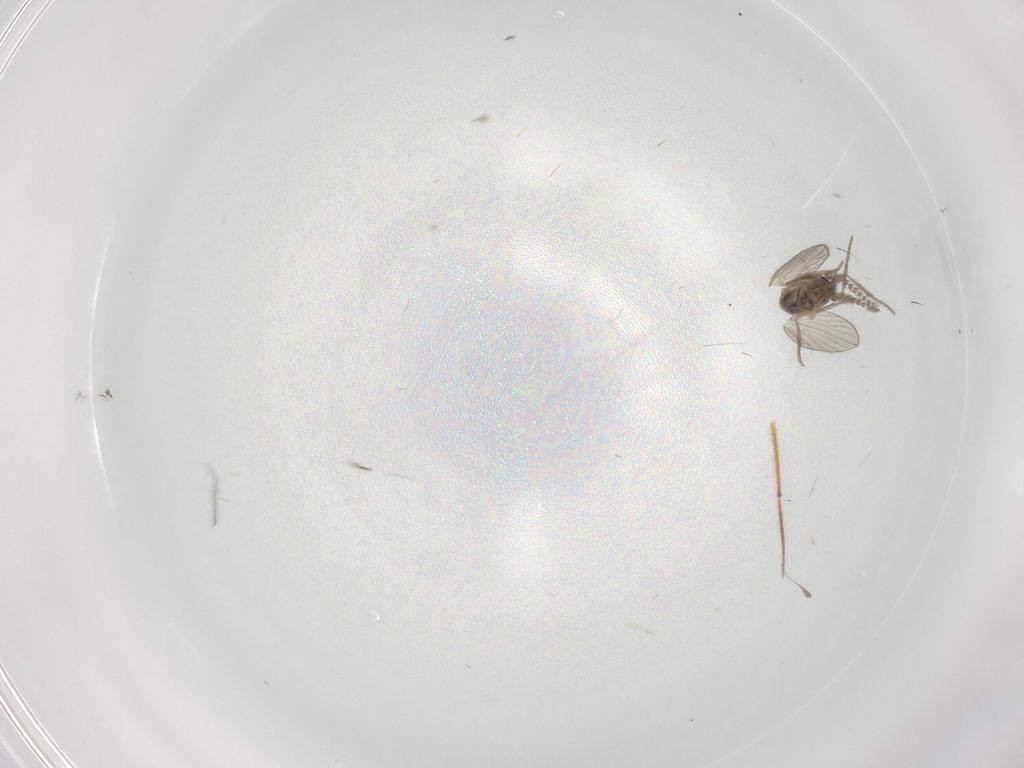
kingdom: Animalia
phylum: Arthropoda
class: Insecta
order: Diptera
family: Psychodidae
